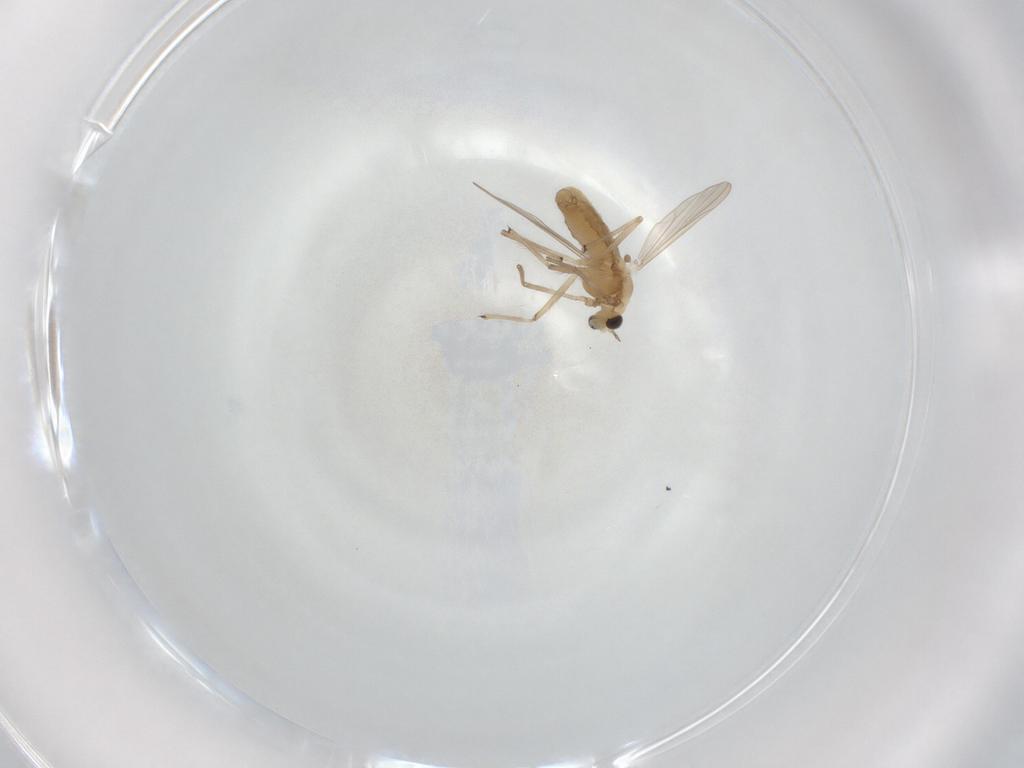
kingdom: Animalia
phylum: Arthropoda
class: Insecta
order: Diptera
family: Chironomidae
